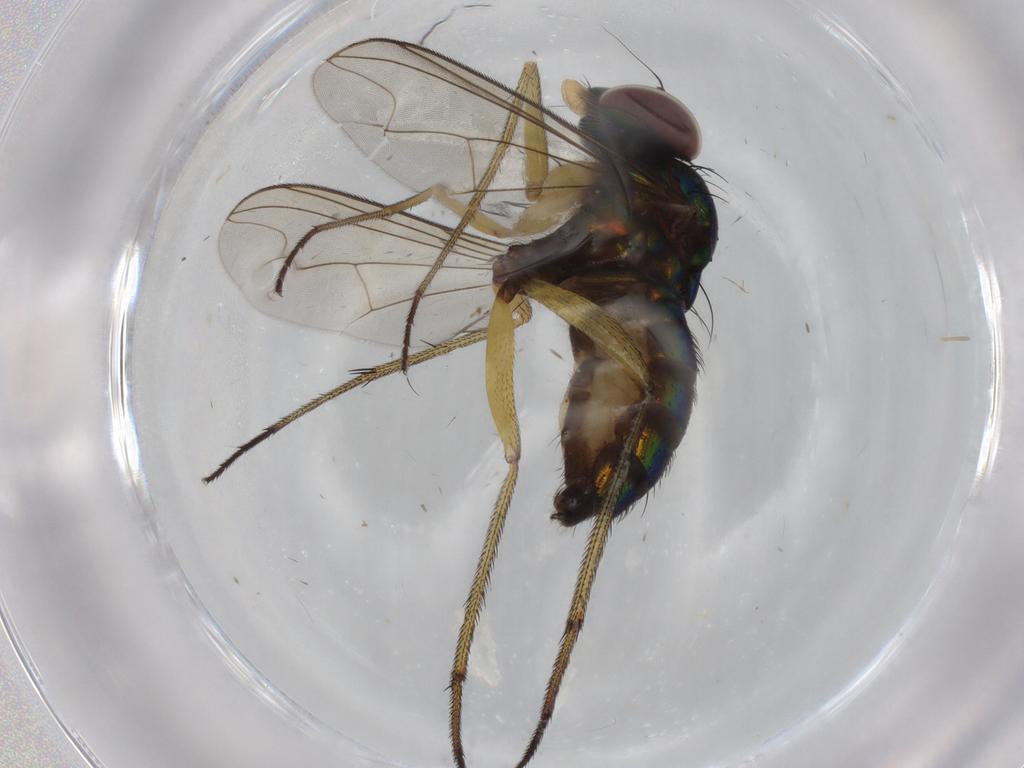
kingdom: Animalia
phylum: Arthropoda
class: Insecta
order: Diptera
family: Dolichopodidae
